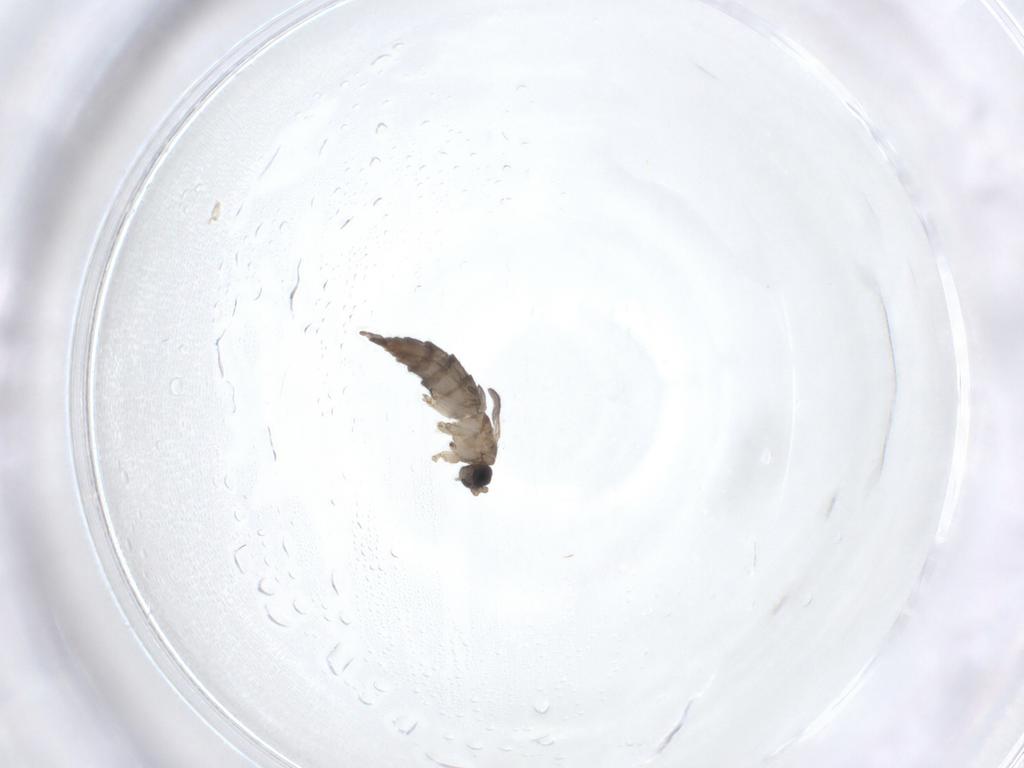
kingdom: Animalia
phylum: Arthropoda
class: Insecta
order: Diptera
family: Sciaridae
